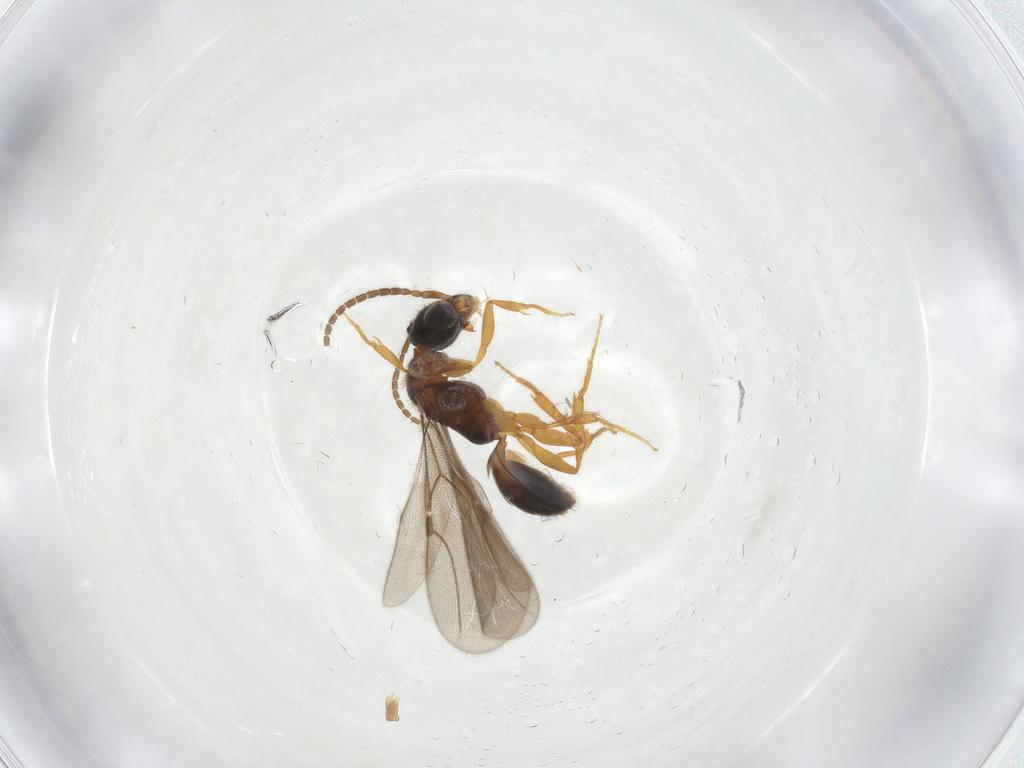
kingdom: Animalia
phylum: Arthropoda
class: Insecta
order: Hymenoptera
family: Bethylidae
